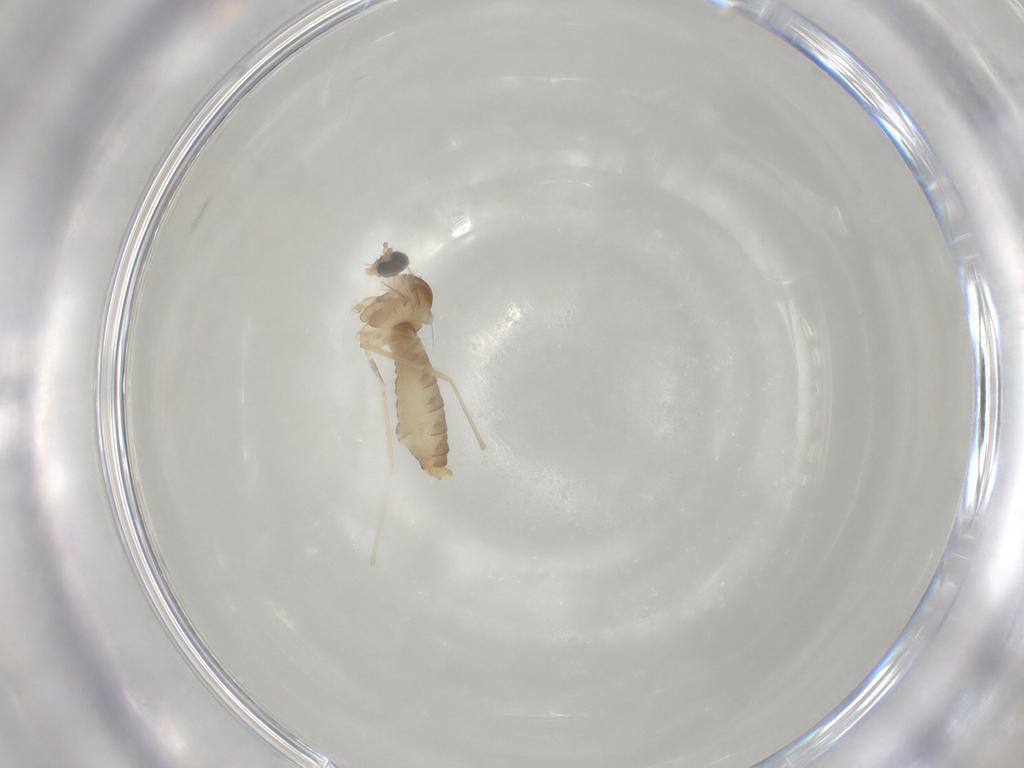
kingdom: Animalia
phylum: Arthropoda
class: Insecta
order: Diptera
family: Cecidomyiidae
